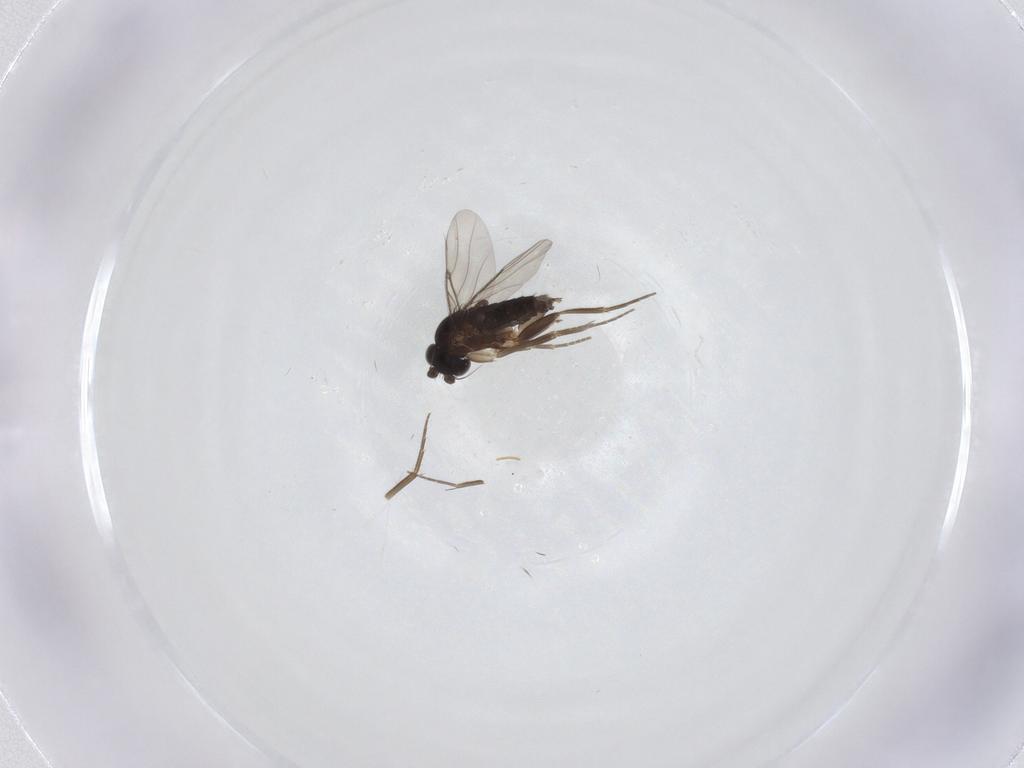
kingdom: Animalia
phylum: Arthropoda
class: Insecta
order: Diptera
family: Phoridae
